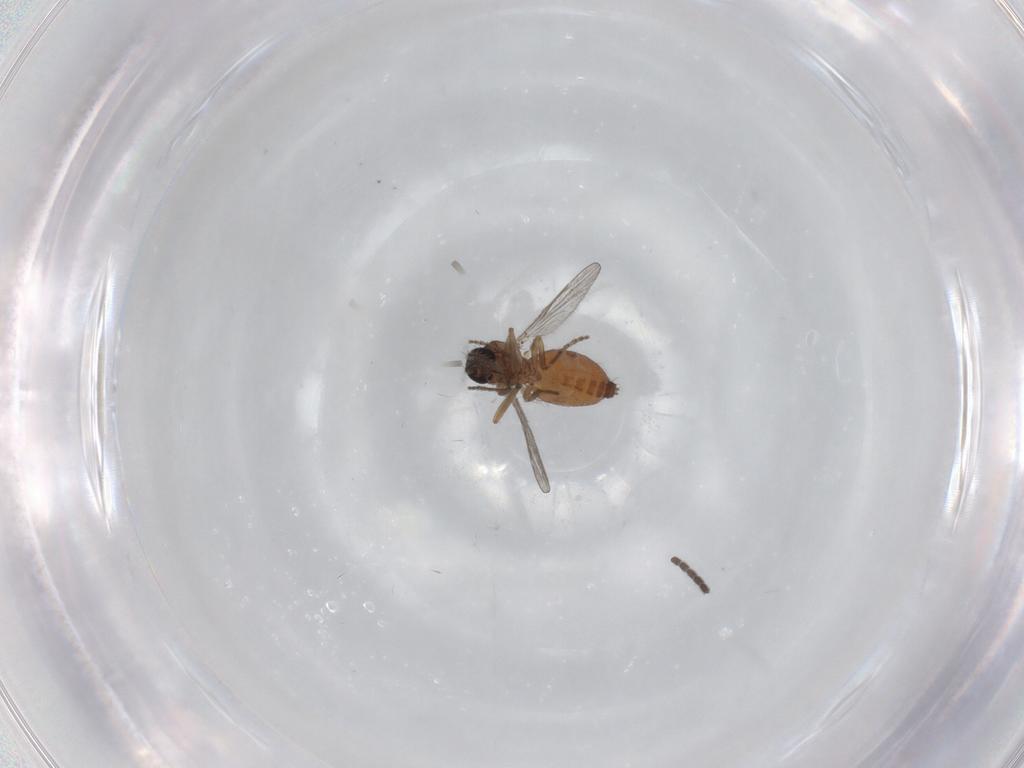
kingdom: Animalia
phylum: Arthropoda
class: Insecta
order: Diptera
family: Ceratopogonidae
